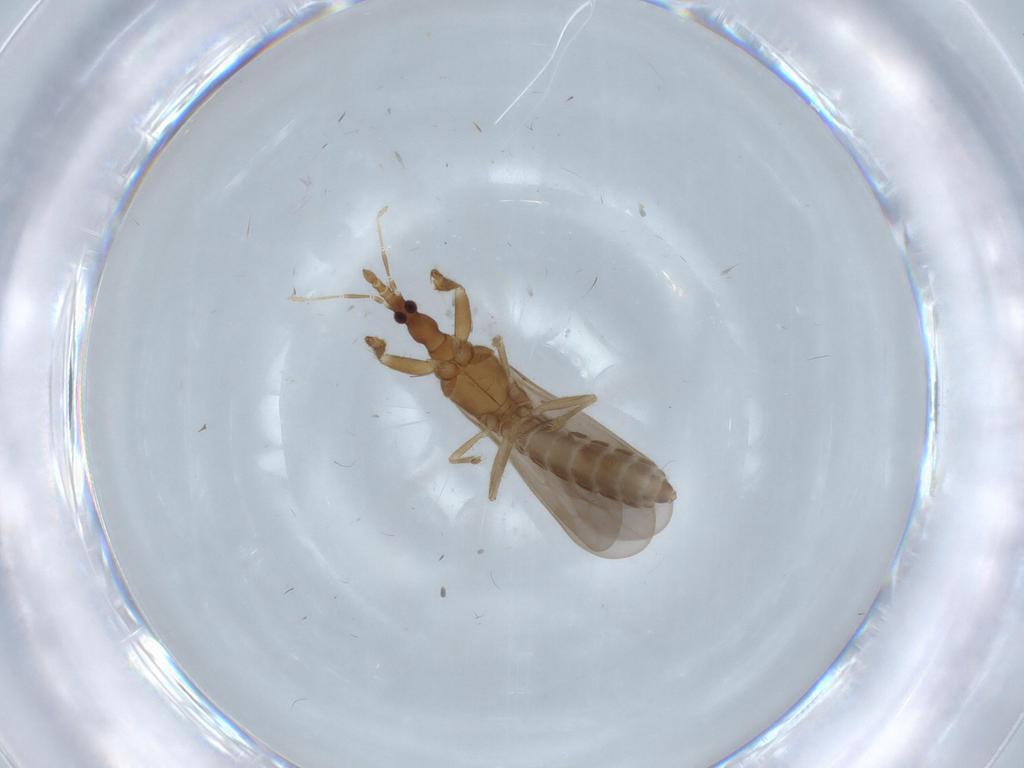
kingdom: Animalia
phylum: Arthropoda
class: Insecta
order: Hemiptera
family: Enicocephalidae
